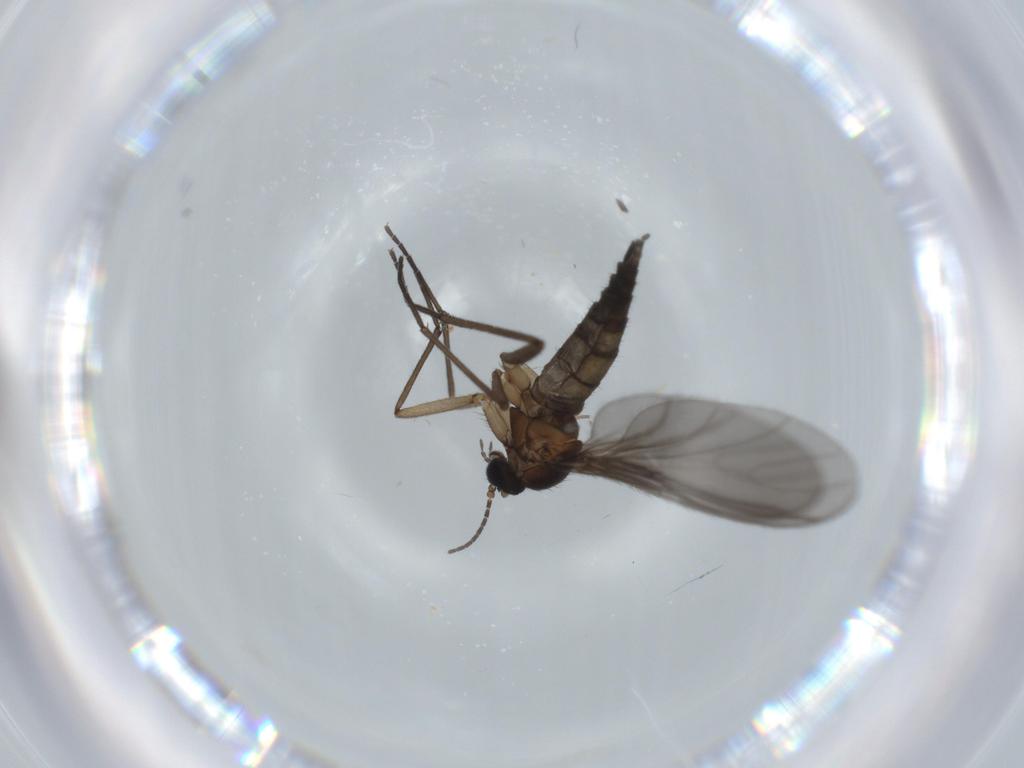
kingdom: Animalia
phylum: Arthropoda
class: Insecta
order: Diptera
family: Sciaridae
